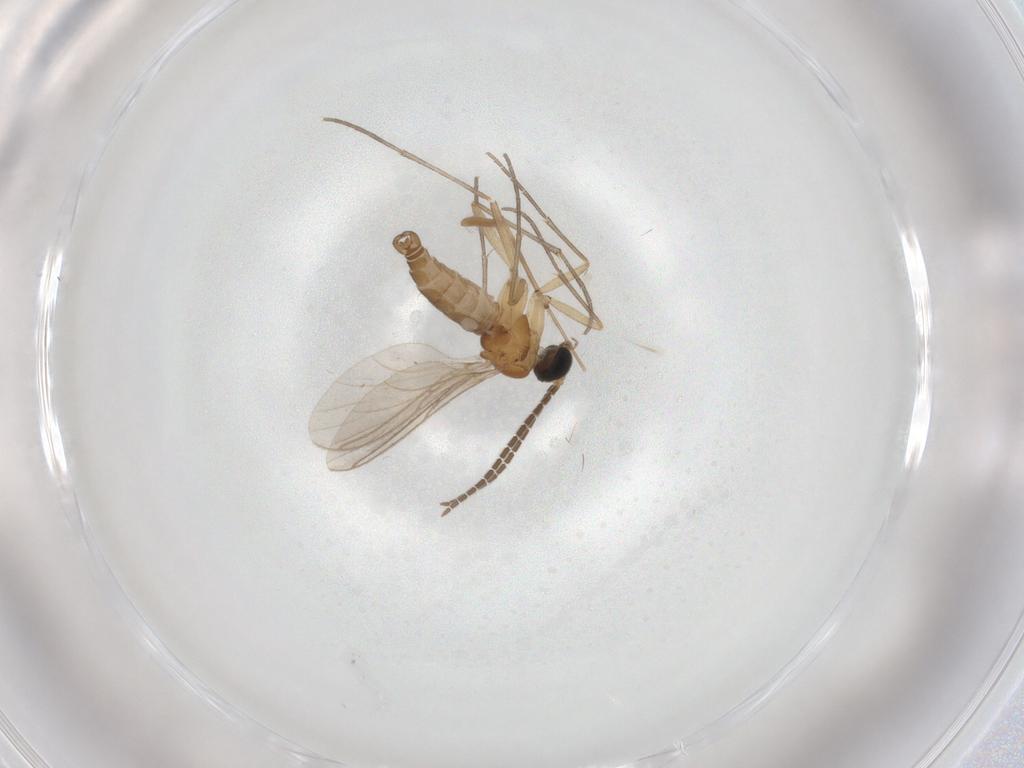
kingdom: Animalia
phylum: Arthropoda
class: Insecta
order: Diptera
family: Sciaridae
